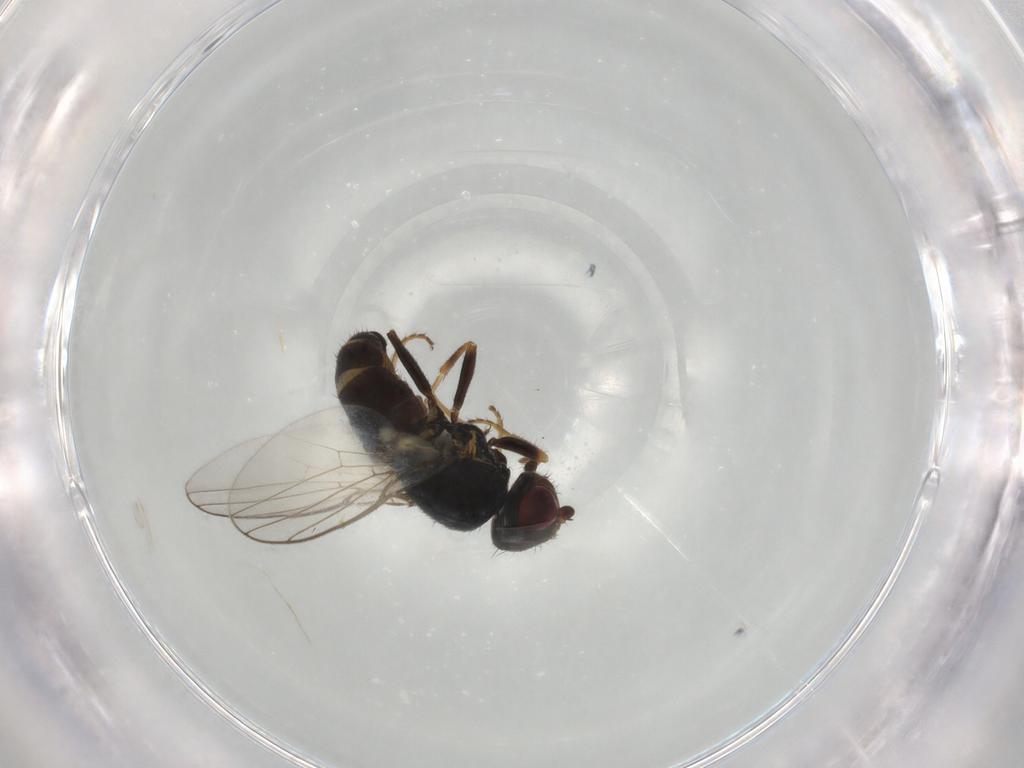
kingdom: Animalia
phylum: Arthropoda
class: Insecta
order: Diptera
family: Chloropidae
